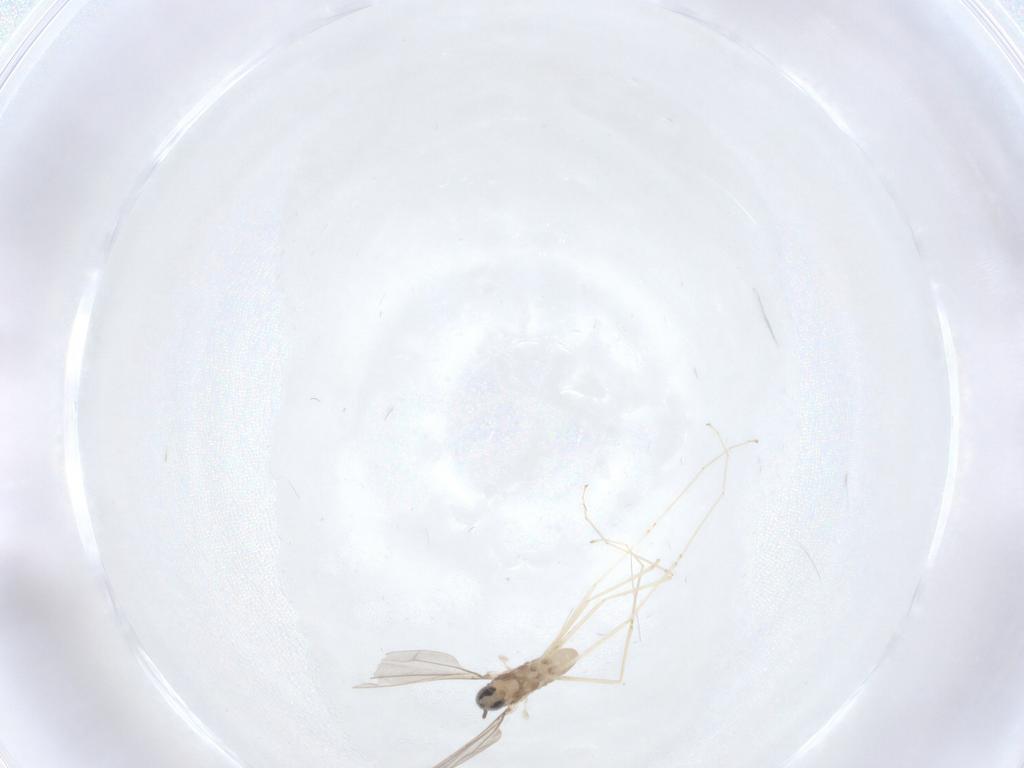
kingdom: Animalia
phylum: Arthropoda
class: Insecta
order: Diptera
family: Cecidomyiidae
